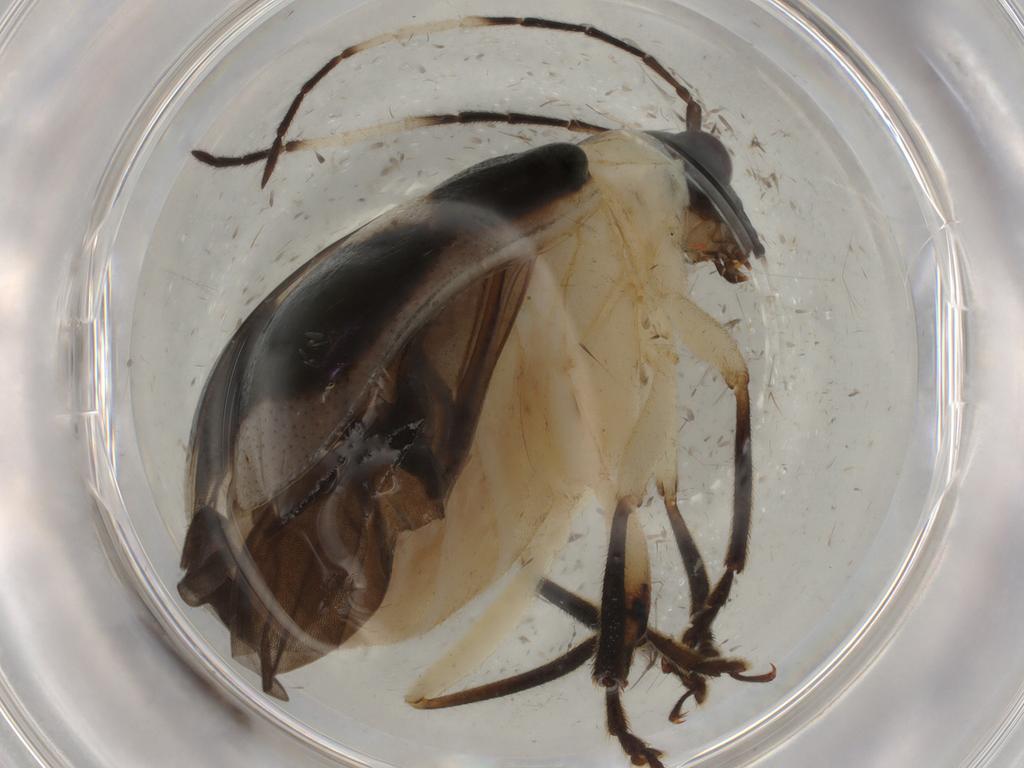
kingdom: Animalia
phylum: Arthropoda
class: Insecta
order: Coleoptera
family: Chrysomelidae
